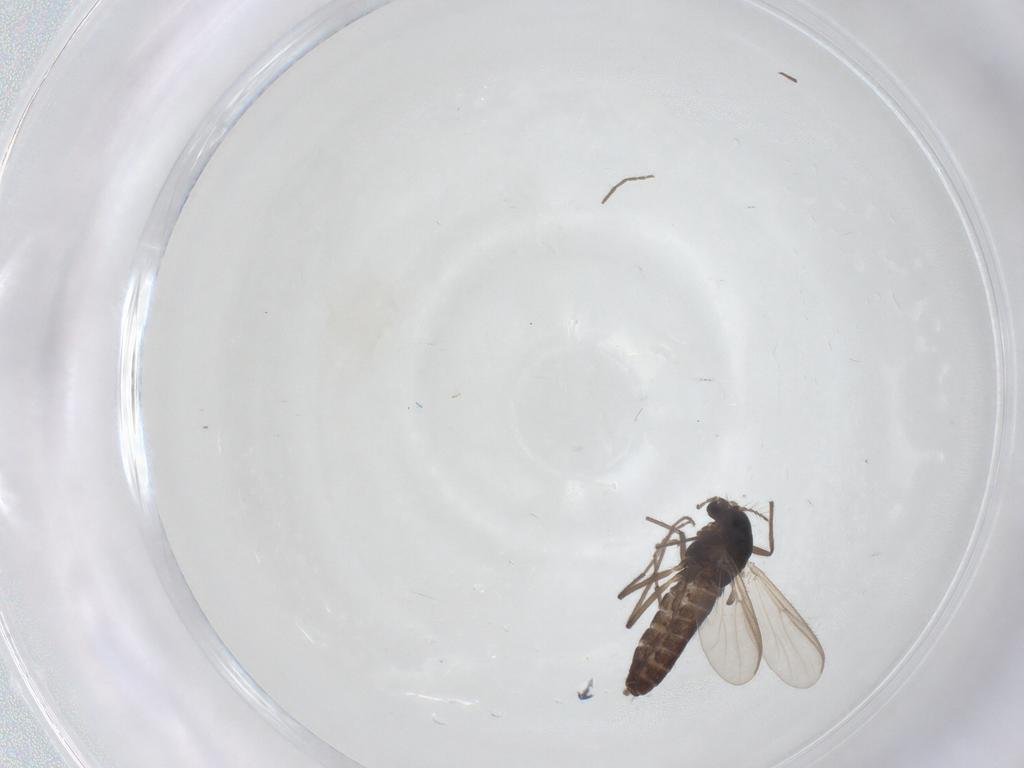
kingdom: Animalia
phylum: Arthropoda
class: Insecta
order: Diptera
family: Chironomidae
